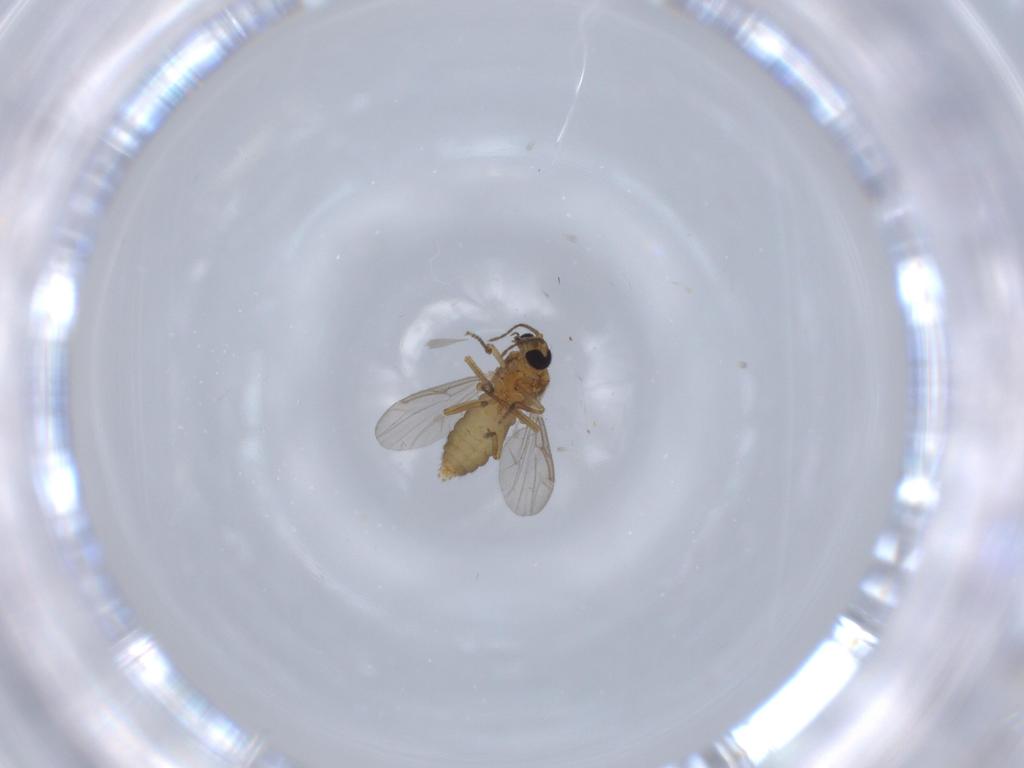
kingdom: Animalia
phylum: Arthropoda
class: Insecta
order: Diptera
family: Ceratopogonidae
